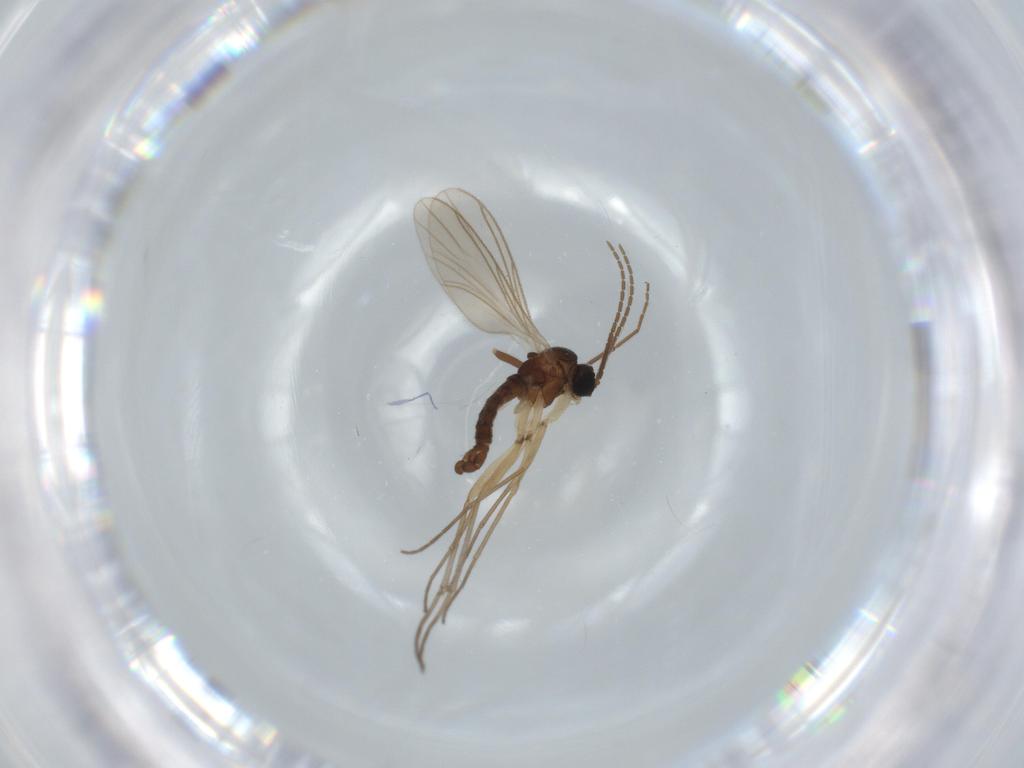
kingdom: Animalia
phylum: Arthropoda
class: Insecta
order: Diptera
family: Sciaridae
